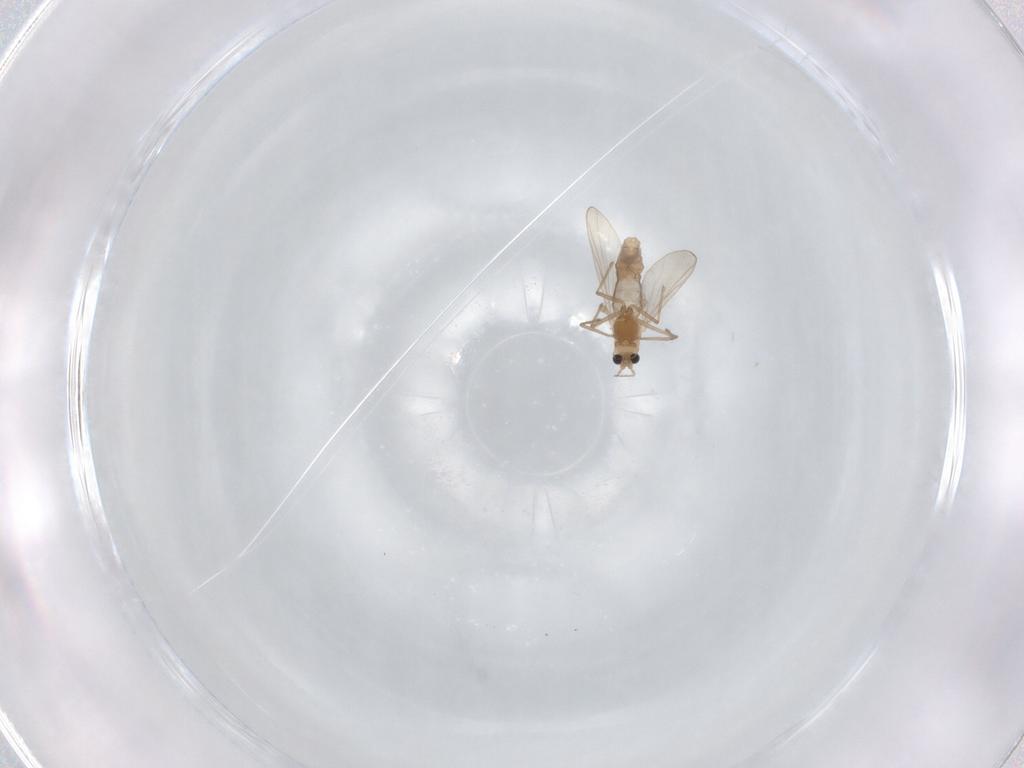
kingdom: Animalia
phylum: Arthropoda
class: Insecta
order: Diptera
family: Chironomidae
